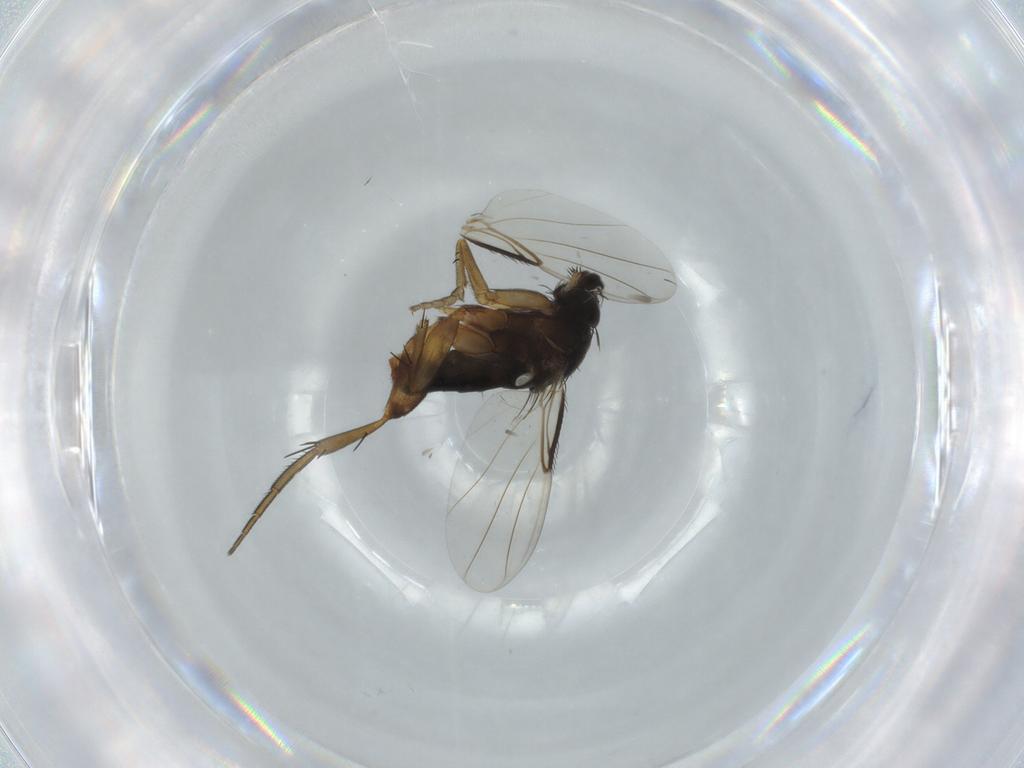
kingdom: Animalia
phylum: Arthropoda
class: Insecta
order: Diptera
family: Phoridae
